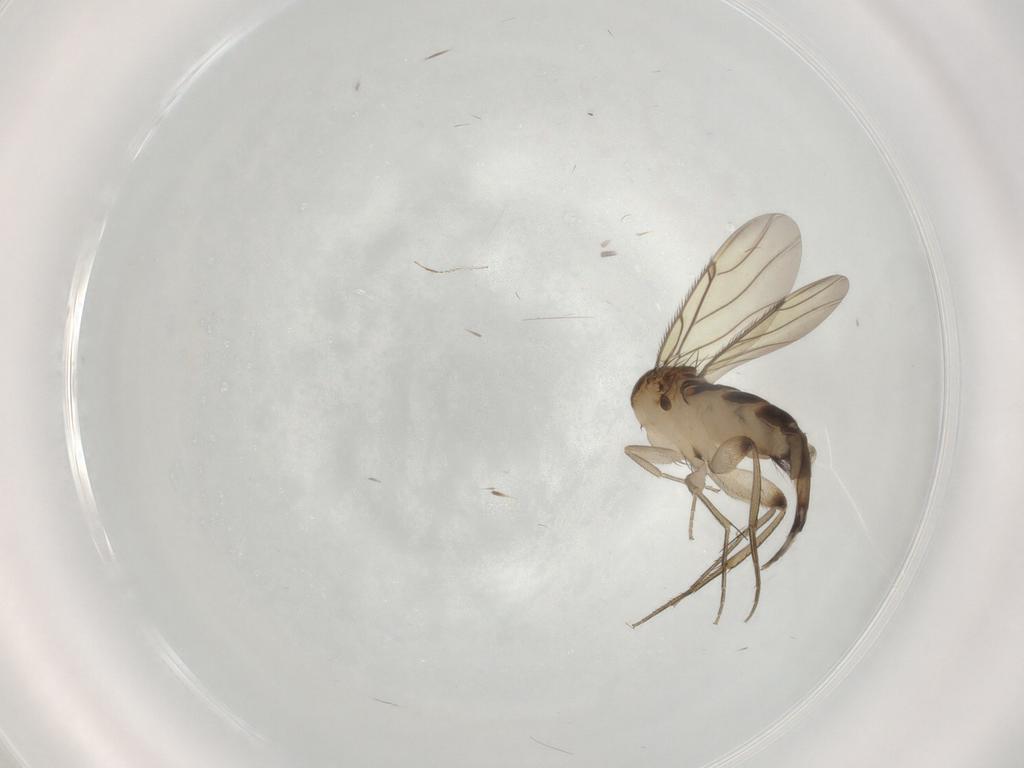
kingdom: Animalia
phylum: Arthropoda
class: Insecta
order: Diptera
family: Phoridae
